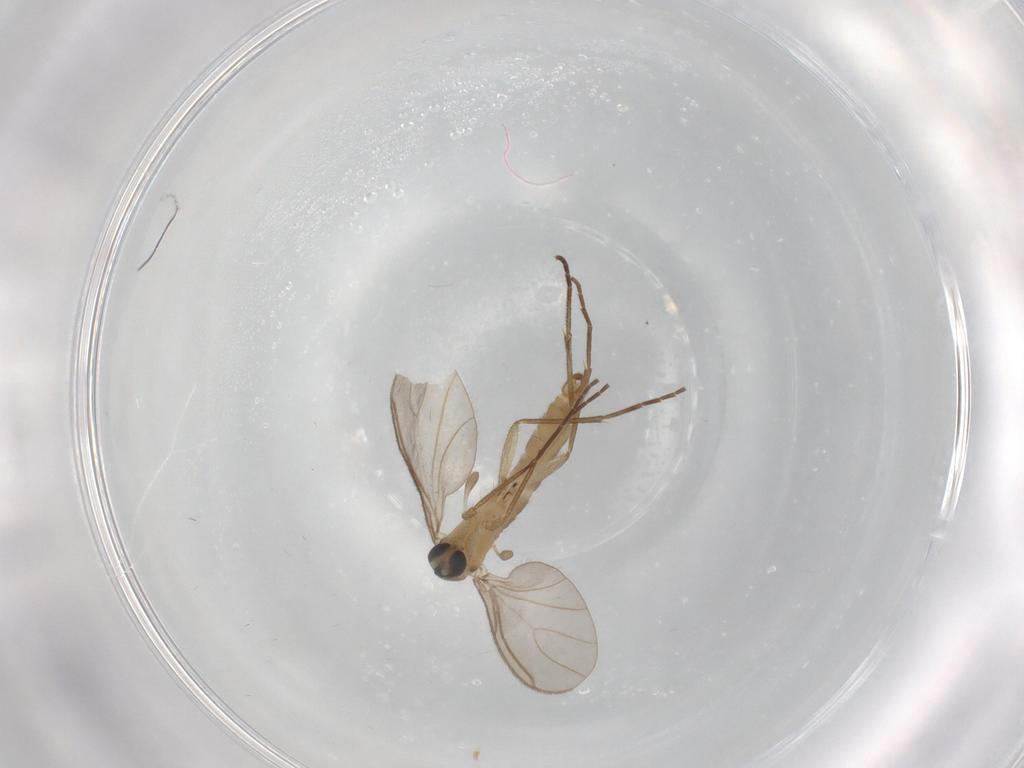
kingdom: Animalia
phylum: Arthropoda
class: Insecta
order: Diptera
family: Sciaridae
